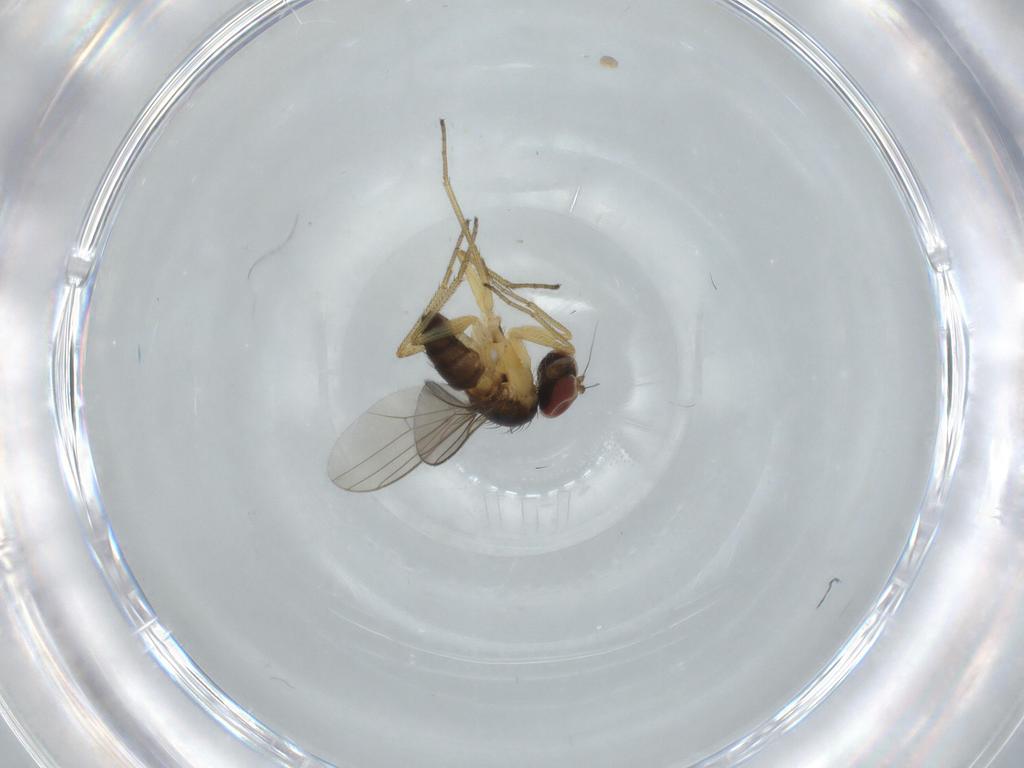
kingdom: Animalia
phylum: Arthropoda
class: Insecta
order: Diptera
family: Dolichopodidae
